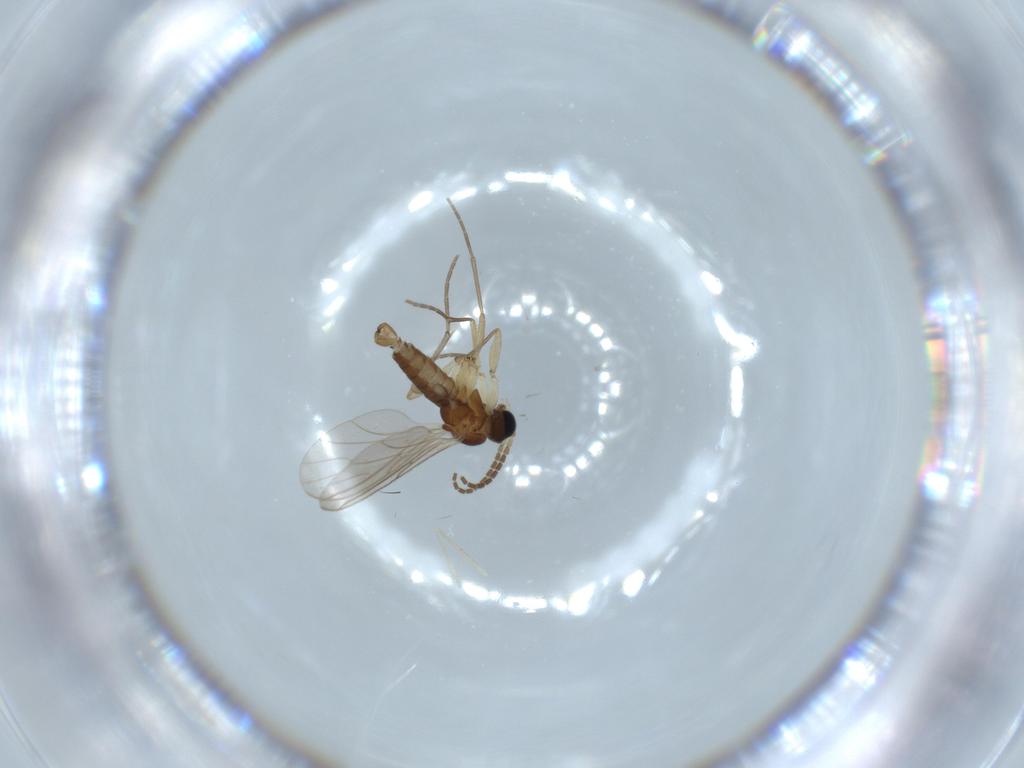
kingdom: Animalia
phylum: Arthropoda
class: Insecta
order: Diptera
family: Sciaridae
